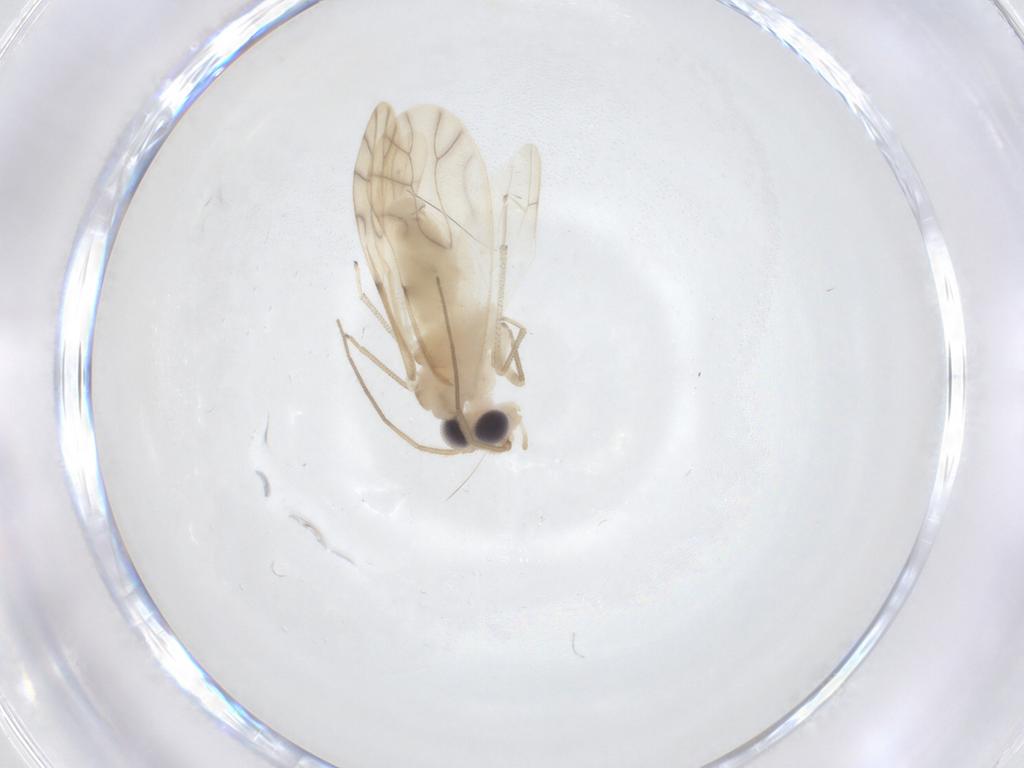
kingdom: Animalia
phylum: Arthropoda
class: Insecta
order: Psocodea
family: Caeciliusidae
